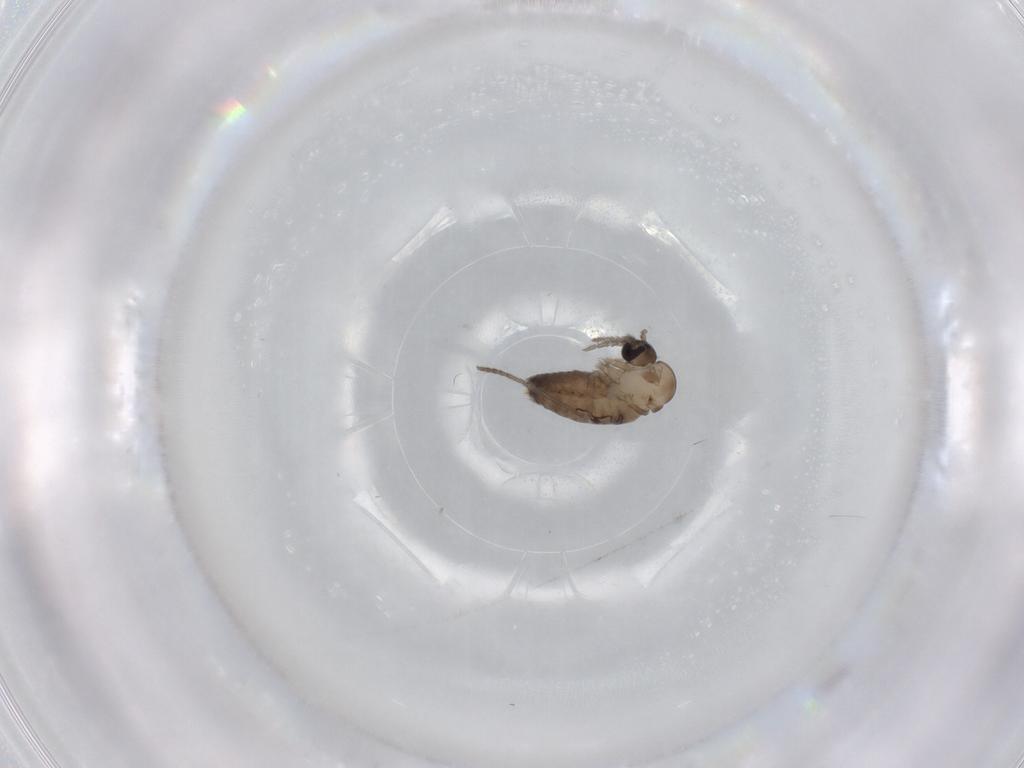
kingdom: Animalia
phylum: Arthropoda
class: Insecta
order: Diptera
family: Psychodidae
